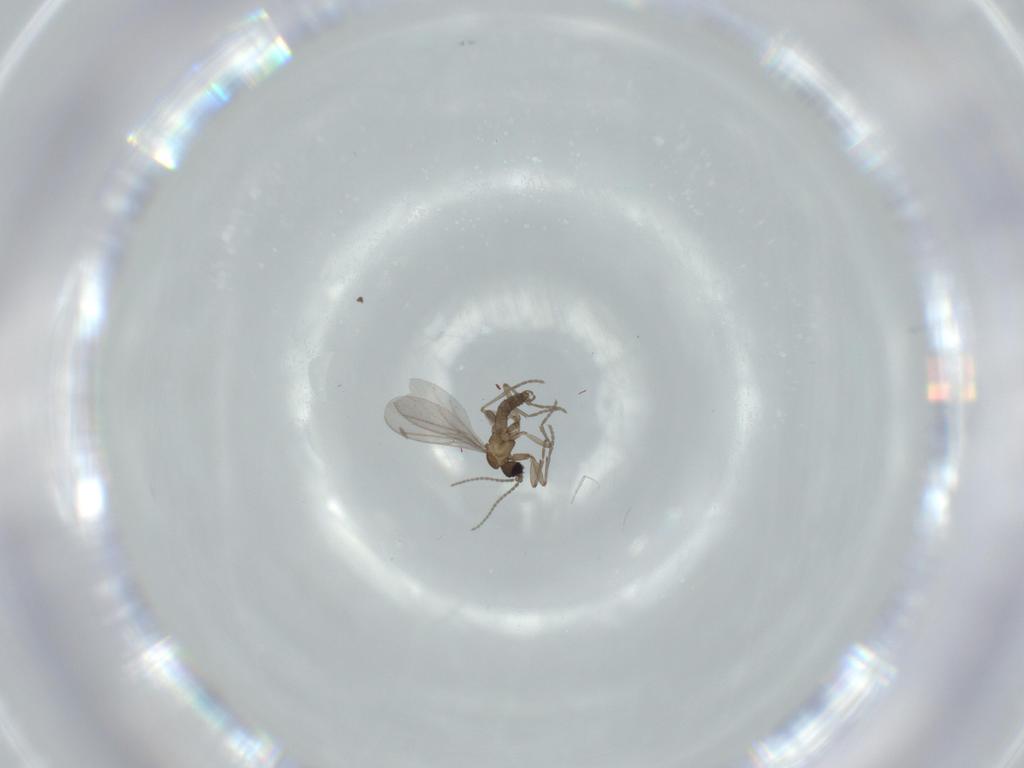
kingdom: Animalia
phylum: Arthropoda
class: Insecta
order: Diptera
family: Mycetophilidae
